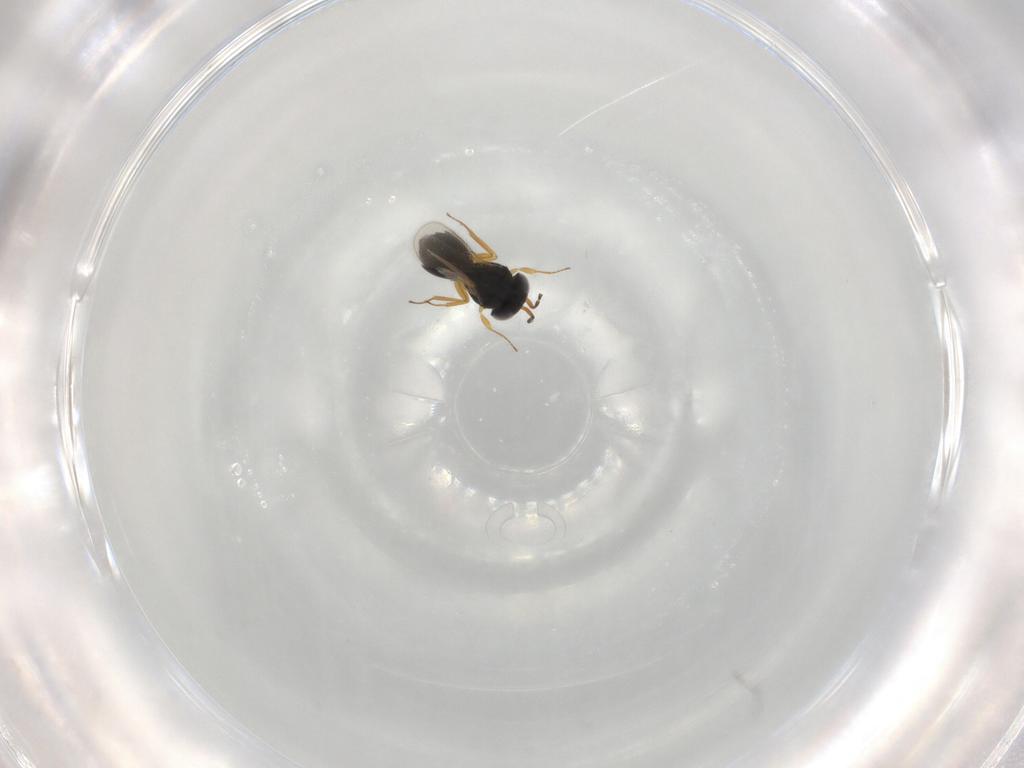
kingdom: Animalia
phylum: Arthropoda
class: Insecta
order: Hymenoptera
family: Scelionidae
